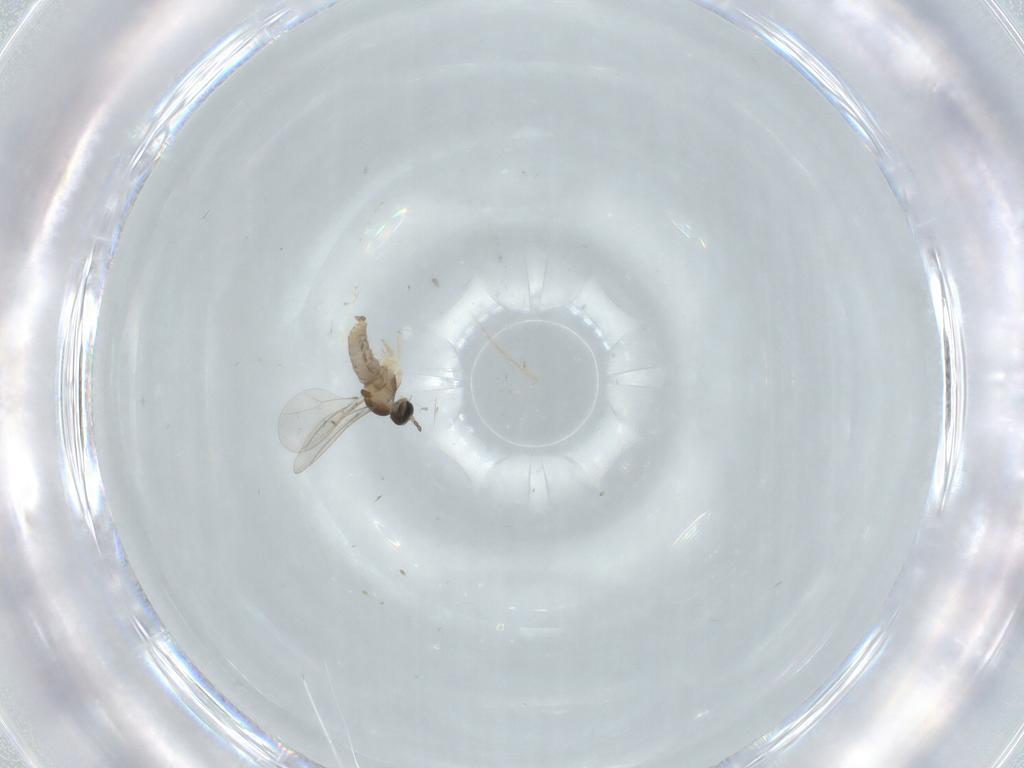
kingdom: Animalia
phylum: Arthropoda
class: Insecta
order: Diptera
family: Cecidomyiidae
